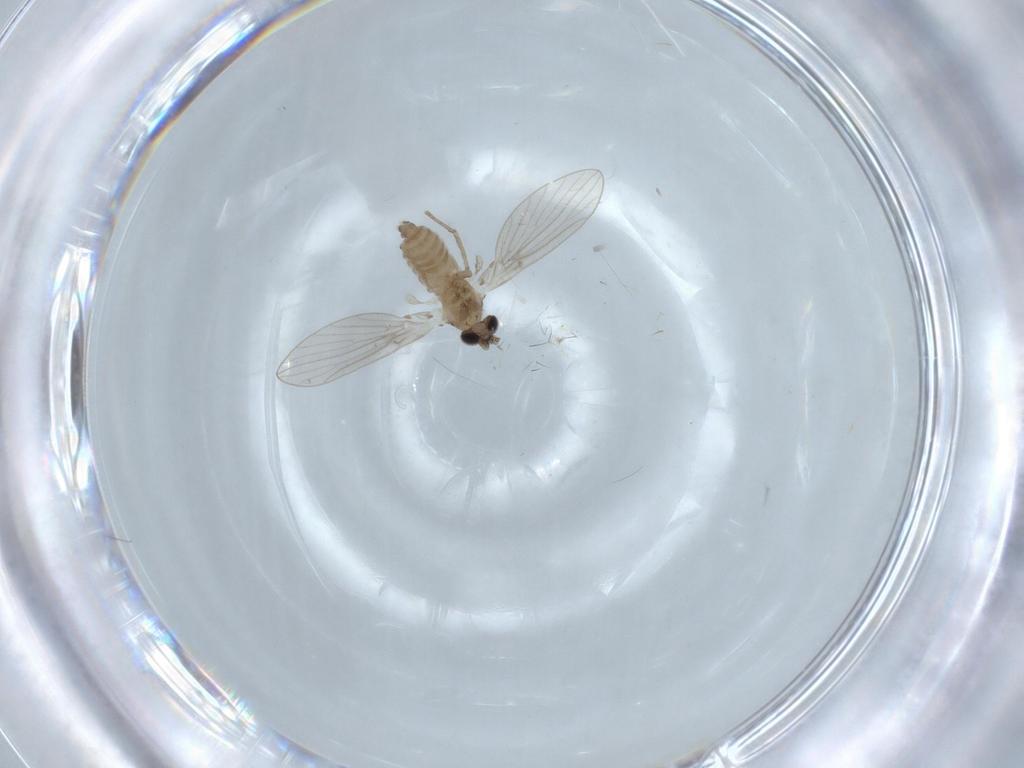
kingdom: Animalia
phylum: Arthropoda
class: Insecta
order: Diptera
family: Psychodidae
